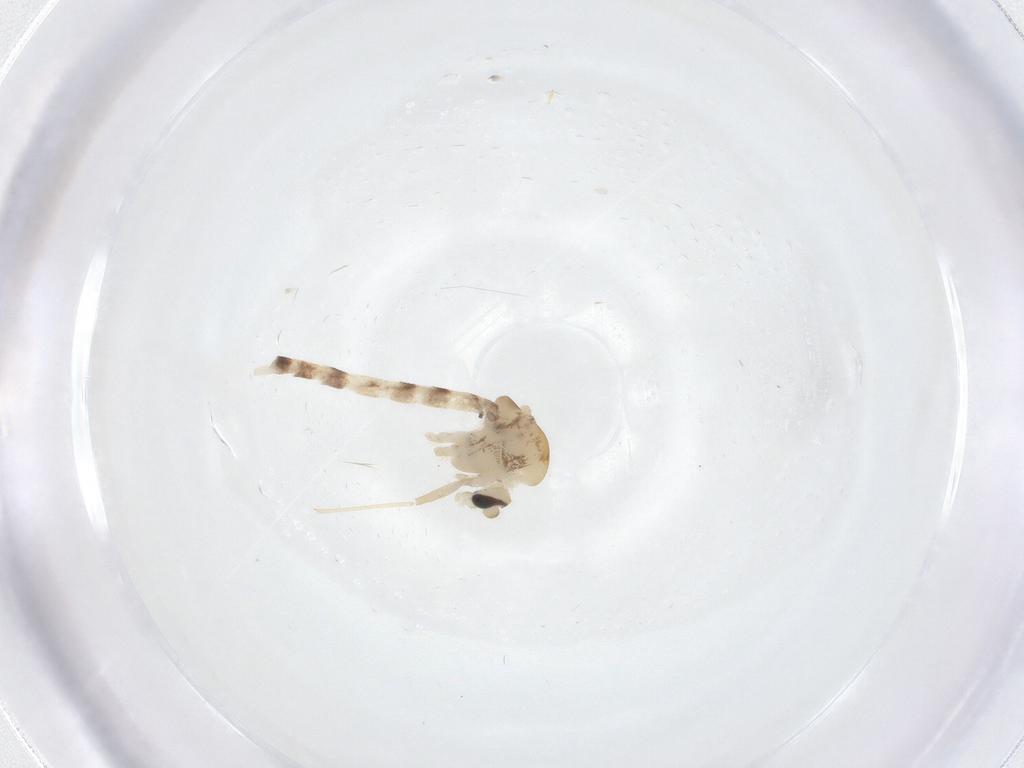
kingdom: Animalia
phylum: Arthropoda
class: Insecta
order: Diptera
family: Chironomidae
